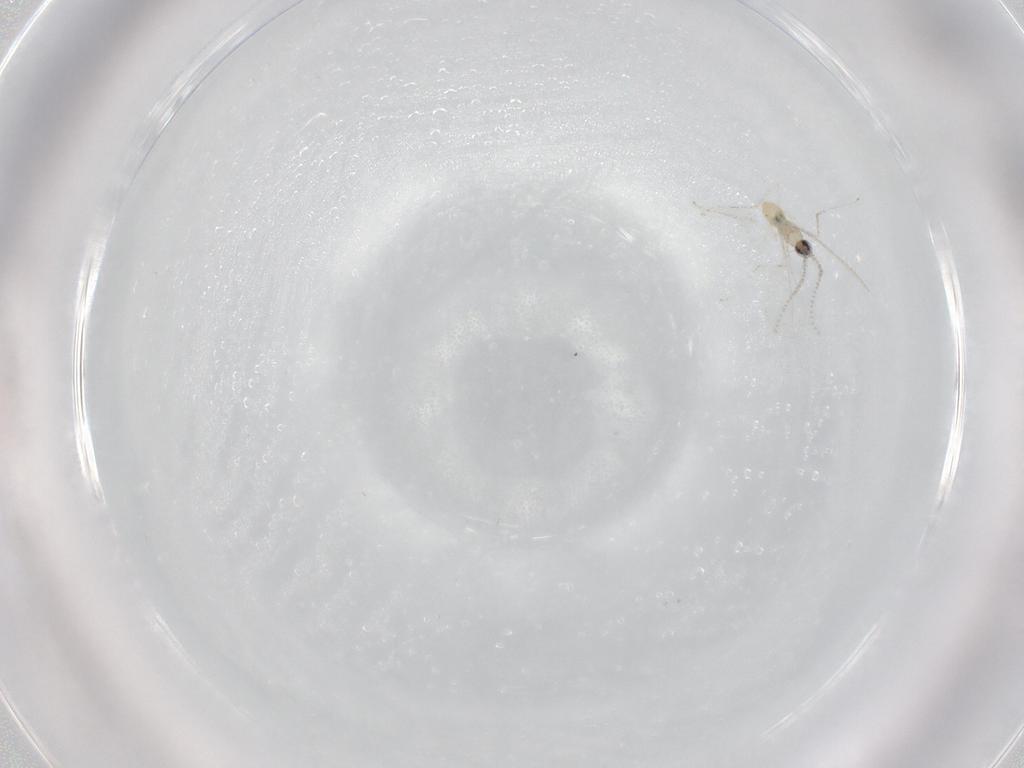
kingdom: Animalia
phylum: Arthropoda
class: Insecta
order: Diptera
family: Cecidomyiidae
